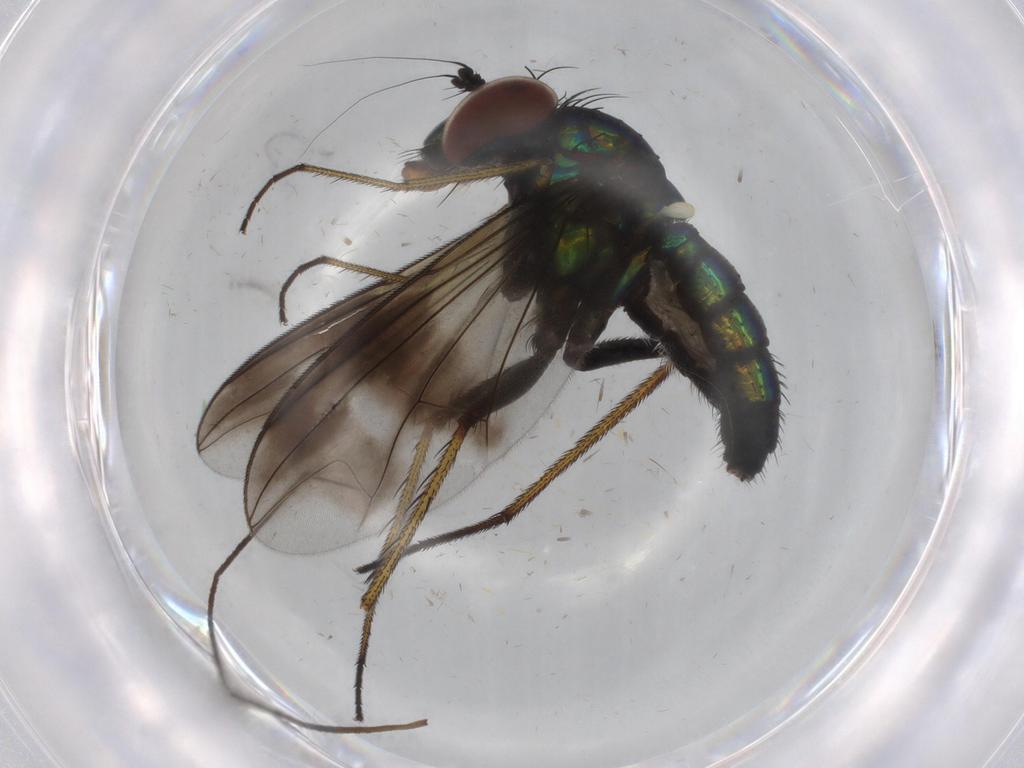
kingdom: Animalia
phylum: Arthropoda
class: Insecta
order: Diptera
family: Dolichopodidae
